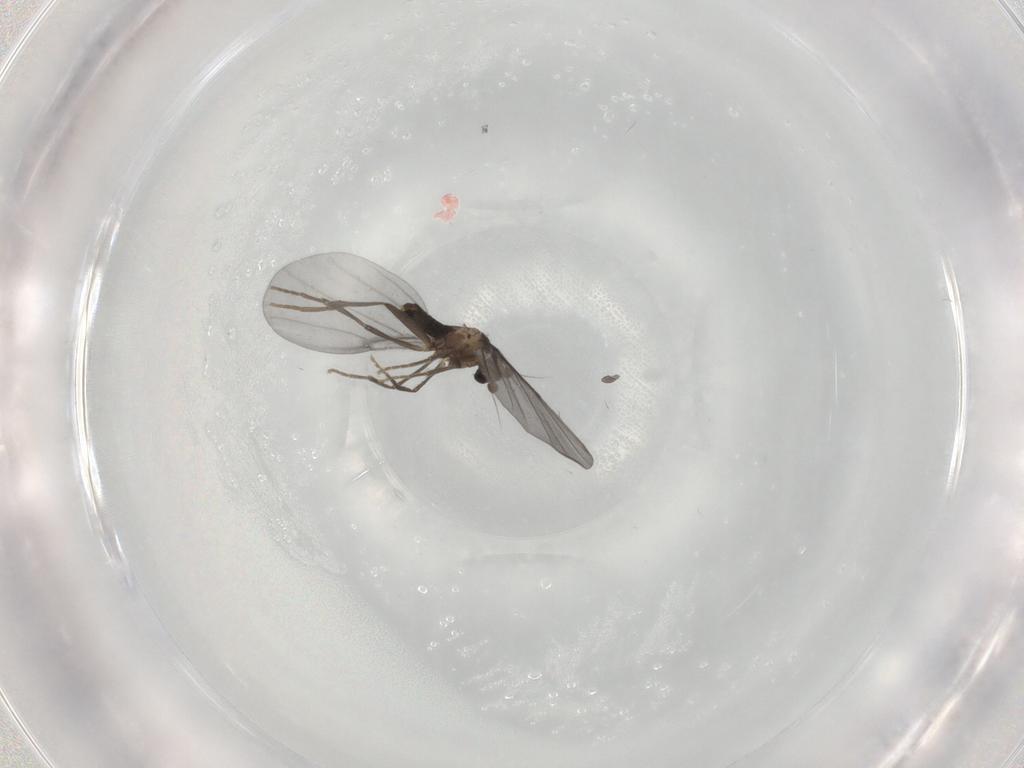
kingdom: Animalia
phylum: Arthropoda
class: Insecta
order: Diptera
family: Phoridae
